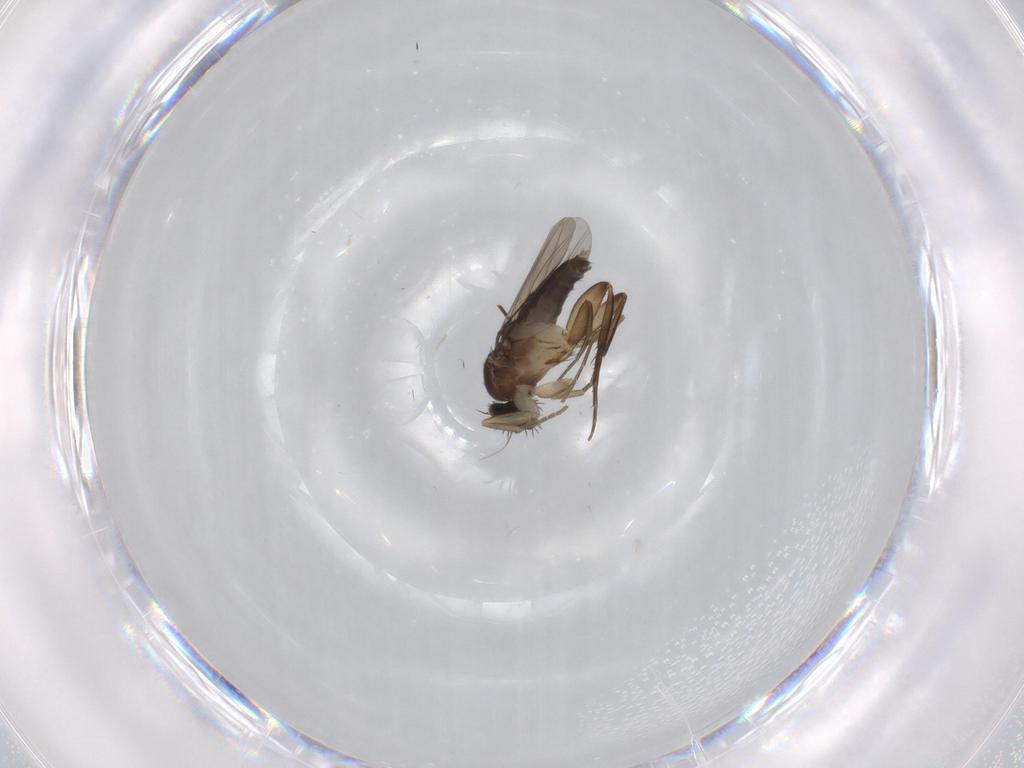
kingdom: Animalia
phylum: Arthropoda
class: Insecta
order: Diptera
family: Phoridae
